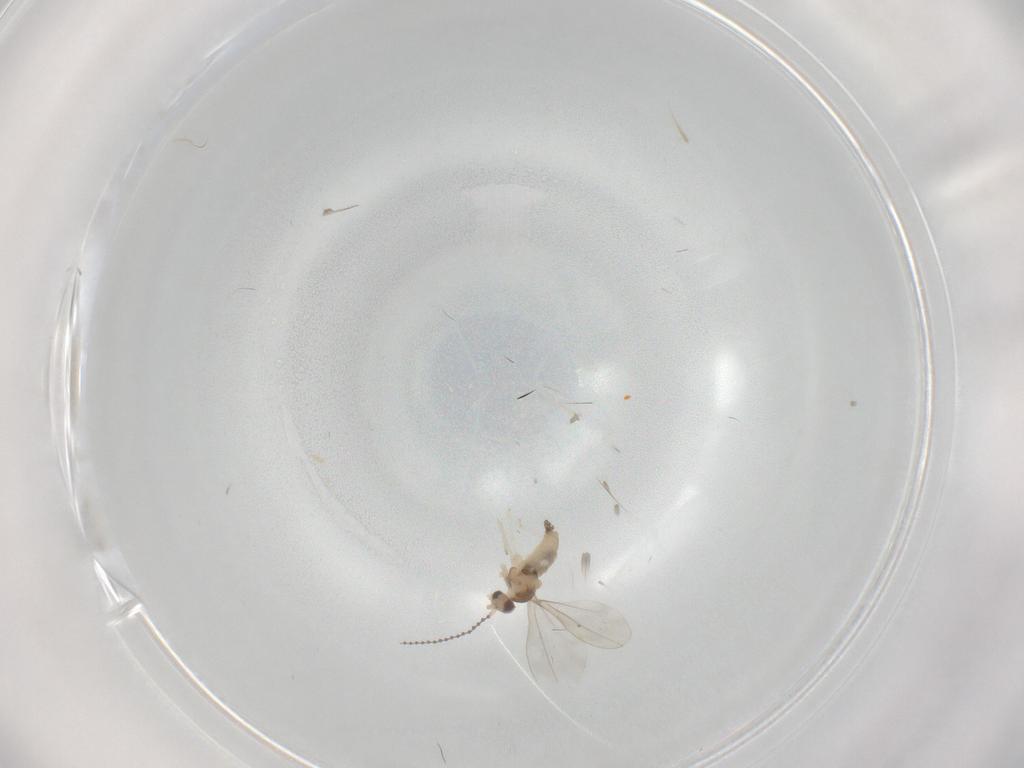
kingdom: Animalia
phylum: Arthropoda
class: Insecta
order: Diptera
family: Cecidomyiidae
